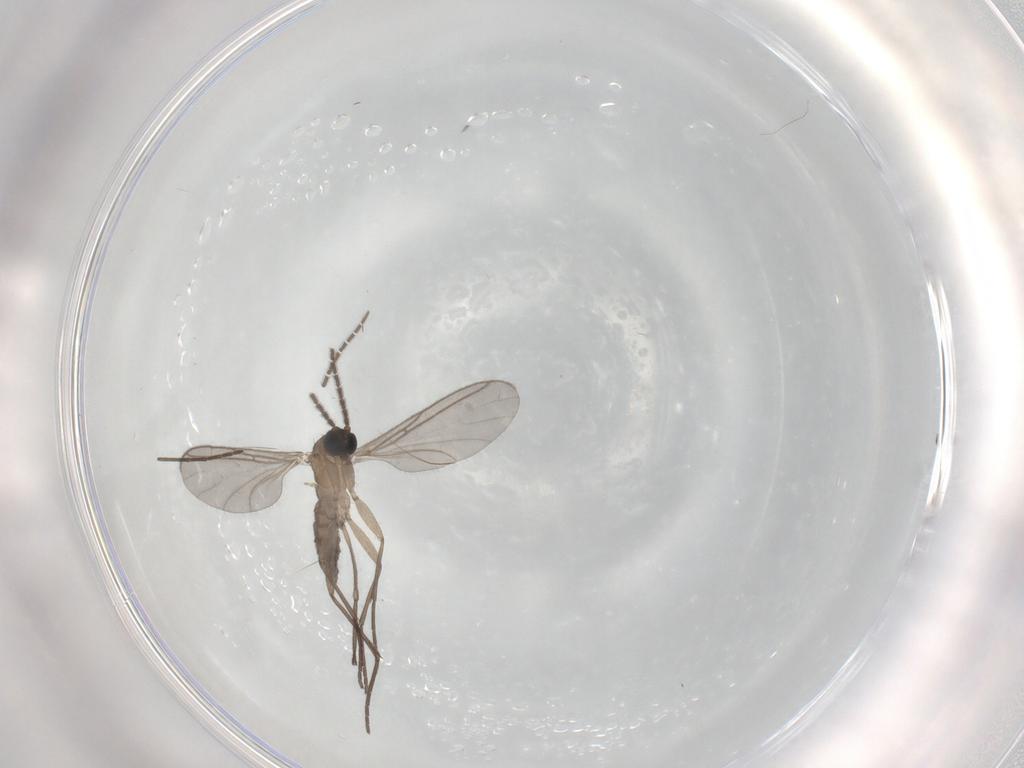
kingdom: Animalia
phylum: Arthropoda
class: Insecta
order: Diptera
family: Sciaridae
